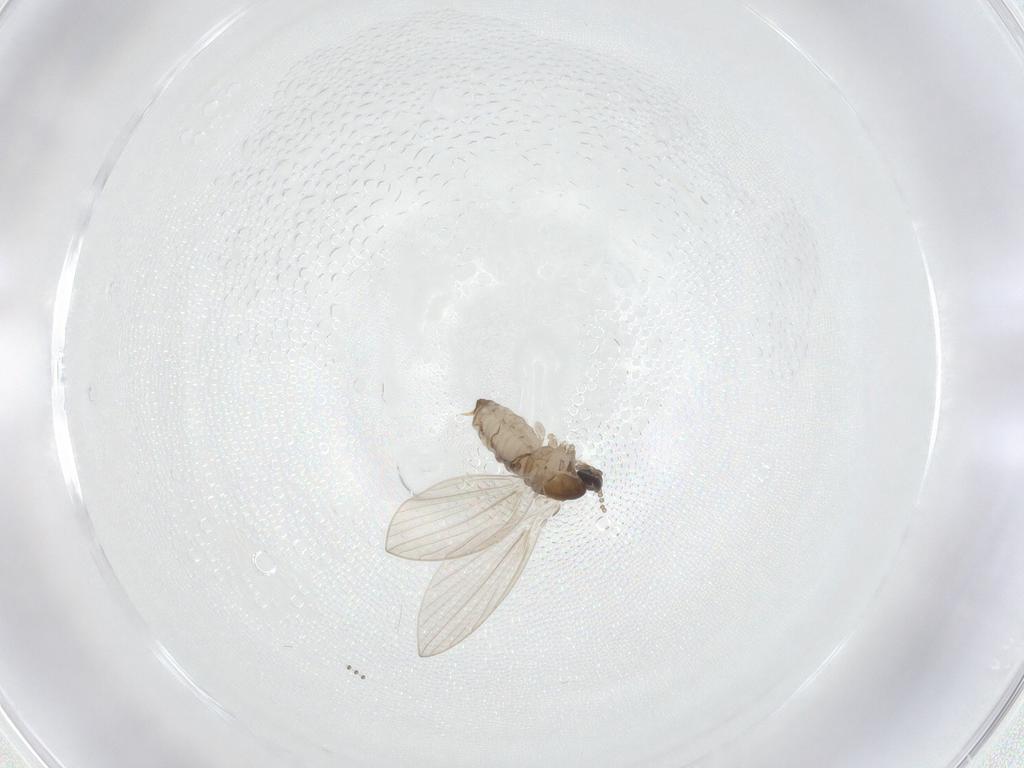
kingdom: Animalia
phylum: Arthropoda
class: Insecta
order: Diptera
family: Psychodidae
